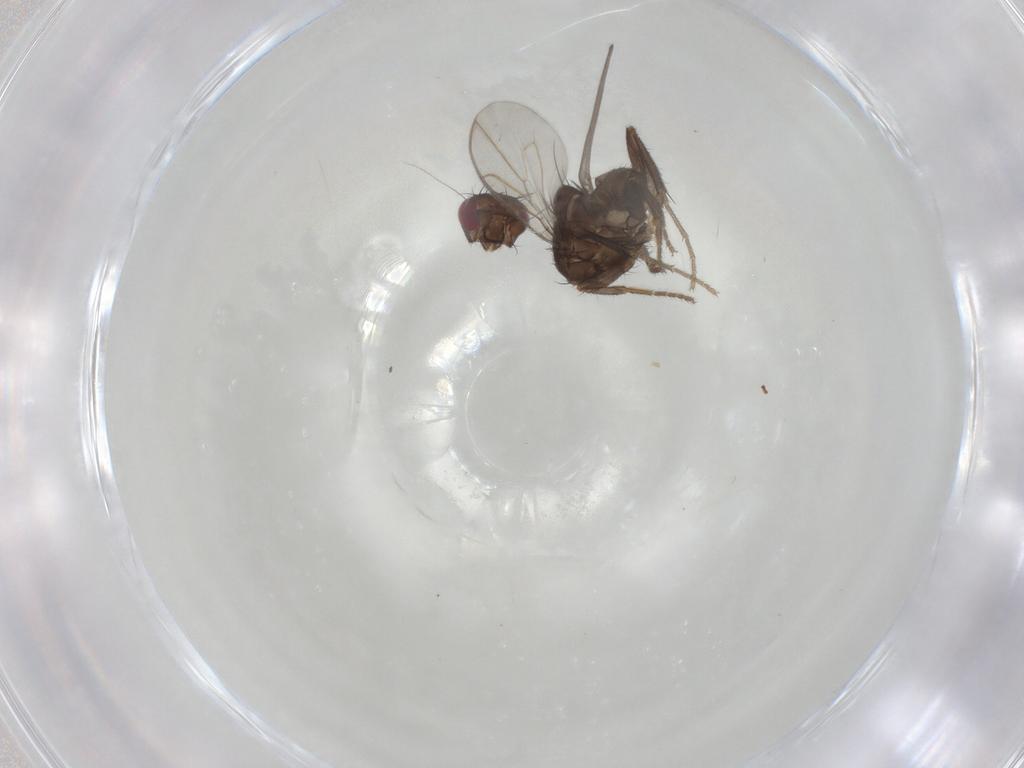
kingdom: Animalia
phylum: Arthropoda
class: Insecta
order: Diptera
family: Sphaeroceridae
